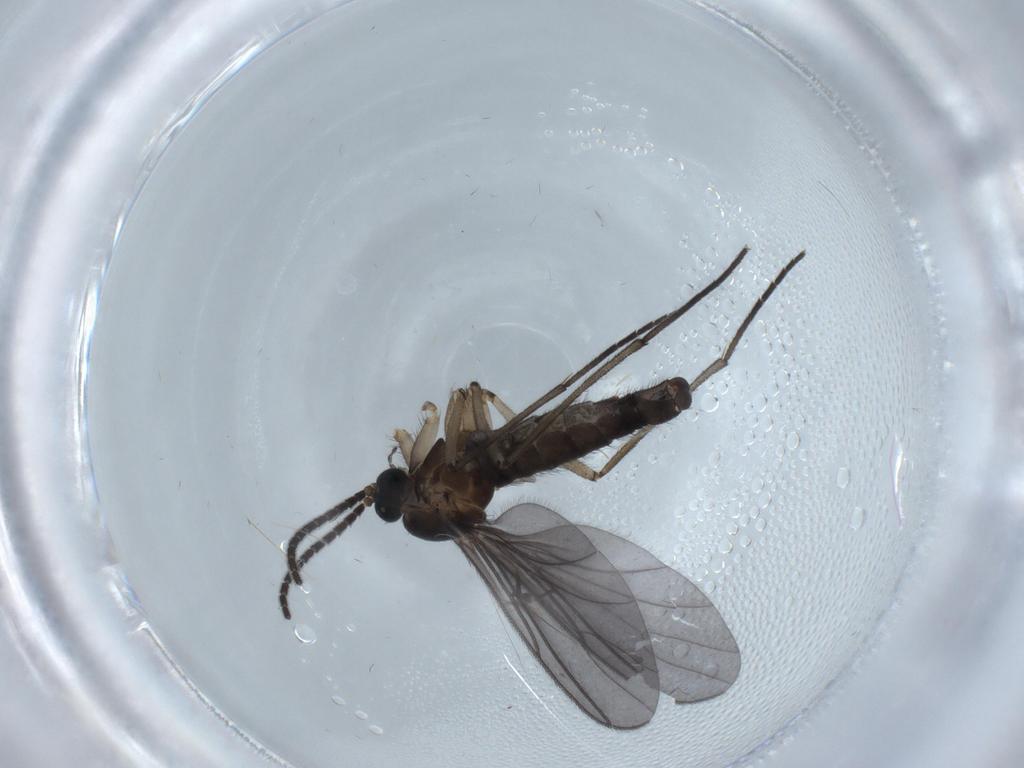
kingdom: Animalia
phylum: Arthropoda
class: Insecta
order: Diptera
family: Sciaridae
